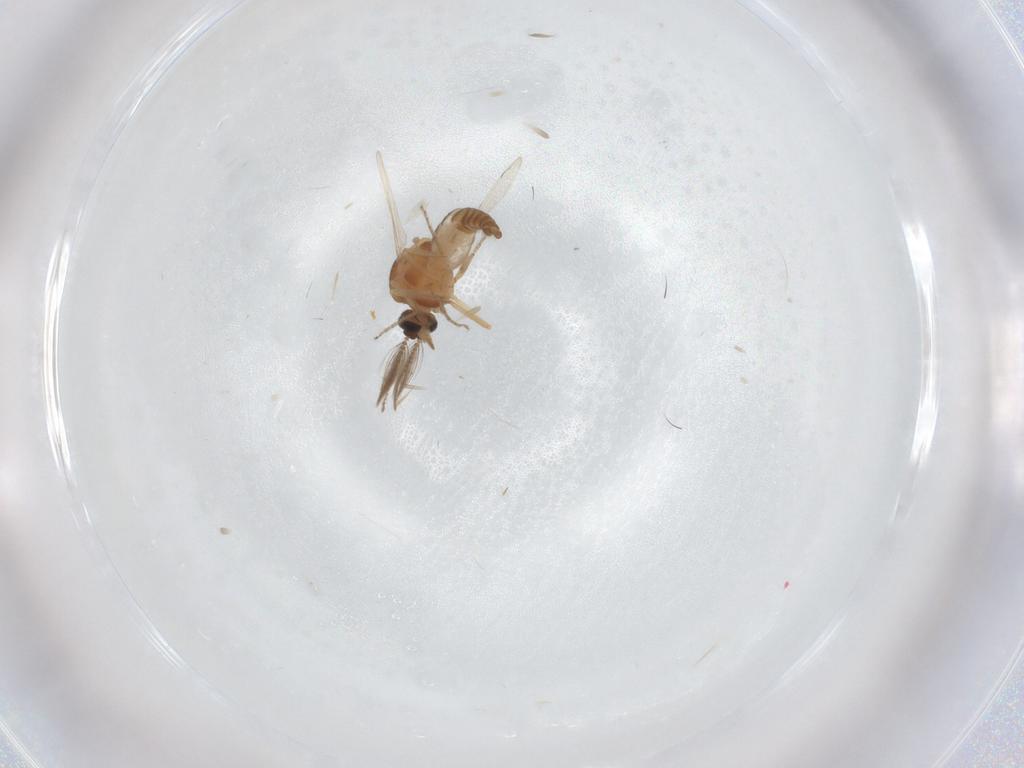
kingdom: Animalia
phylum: Arthropoda
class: Insecta
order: Diptera
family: Ceratopogonidae
